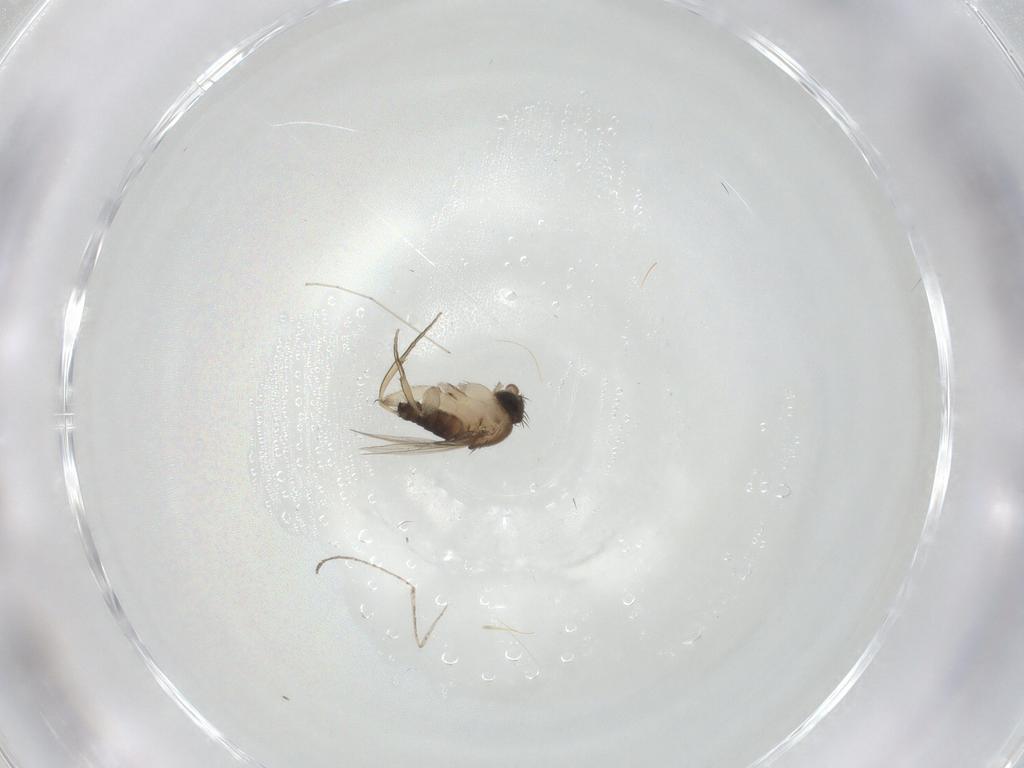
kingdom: Animalia
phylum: Arthropoda
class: Insecta
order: Diptera
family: Phoridae
